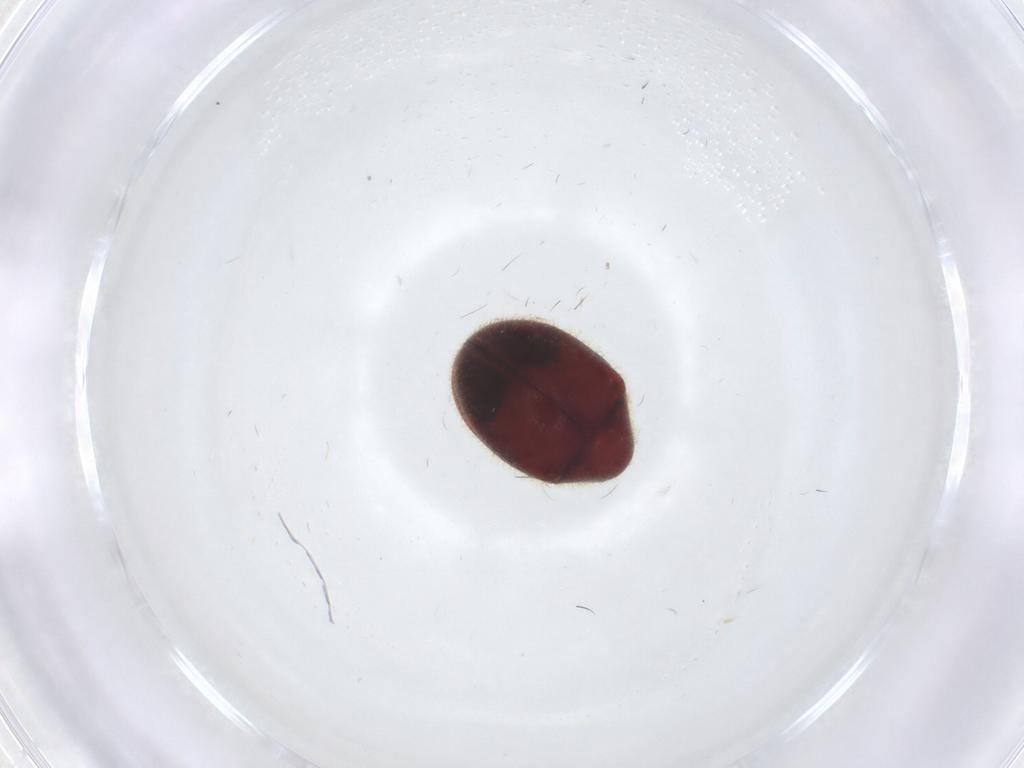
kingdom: Animalia
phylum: Arthropoda
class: Insecta
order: Coleoptera
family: Ptinidae
